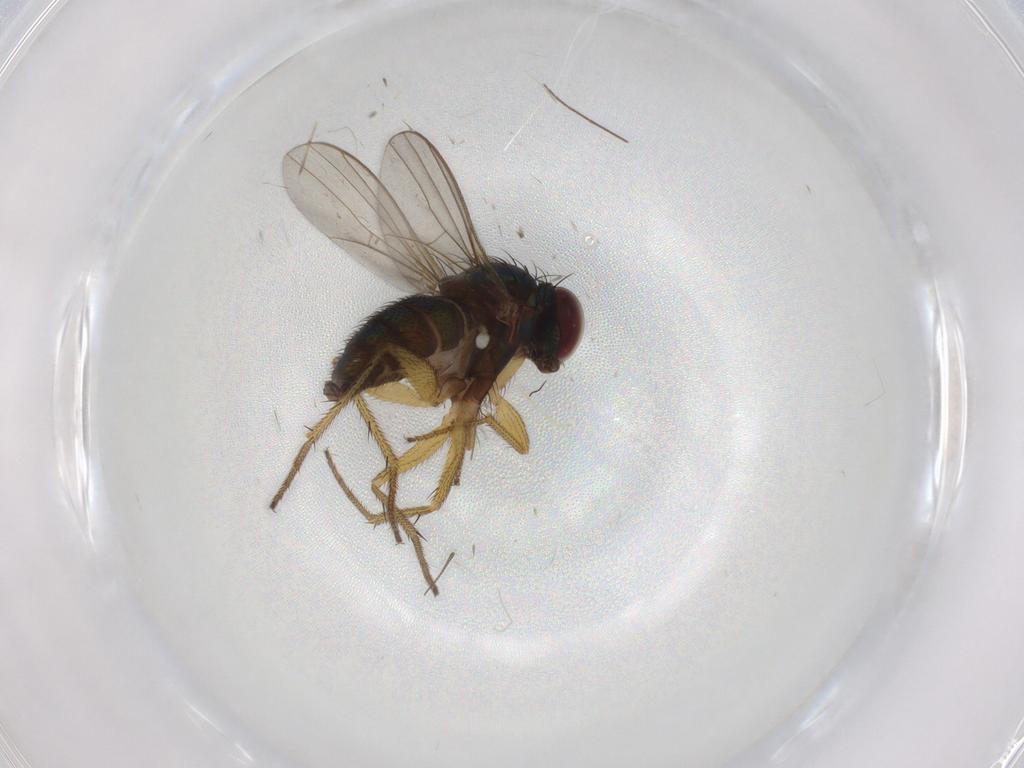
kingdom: Animalia
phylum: Arthropoda
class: Insecta
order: Diptera
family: Dolichopodidae
